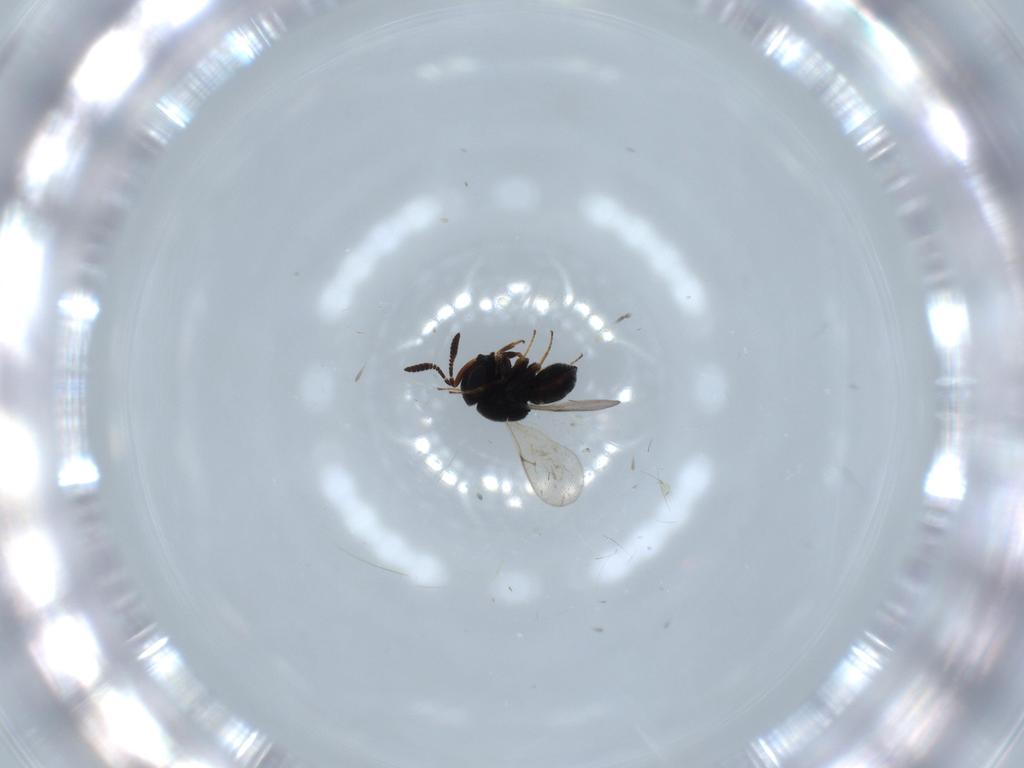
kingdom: Animalia
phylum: Arthropoda
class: Insecta
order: Hymenoptera
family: Scelionidae
